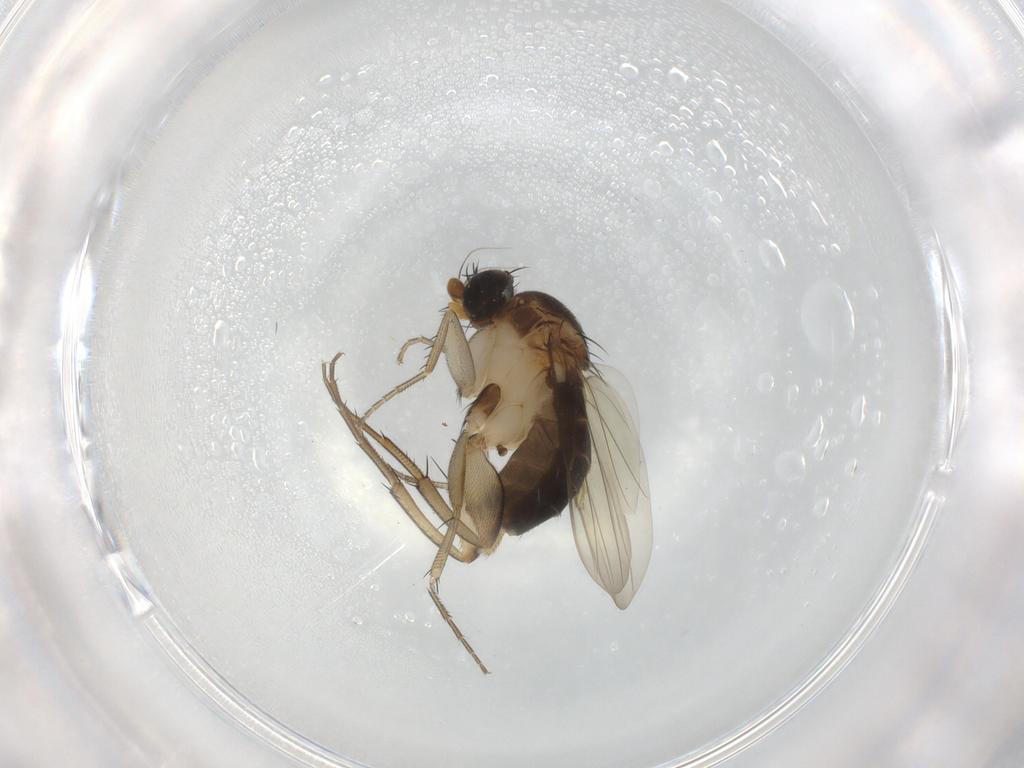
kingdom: Animalia
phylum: Arthropoda
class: Insecta
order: Diptera
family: Phoridae
